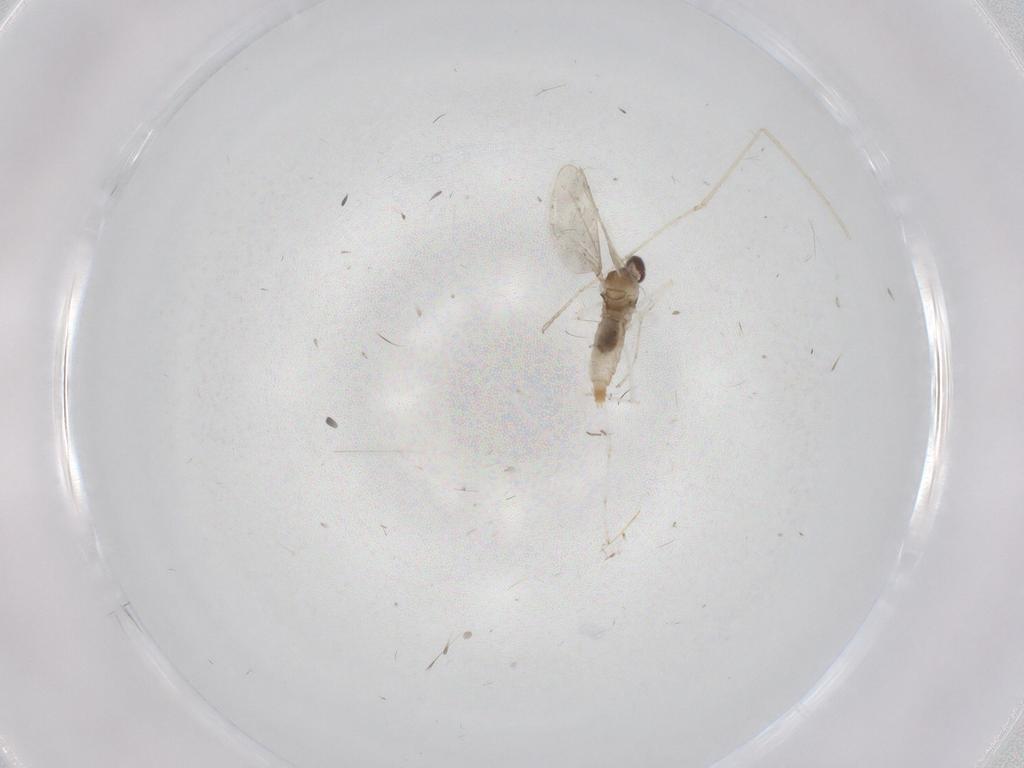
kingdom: Animalia
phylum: Arthropoda
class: Insecta
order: Diptera
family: Cecidomyiidae
